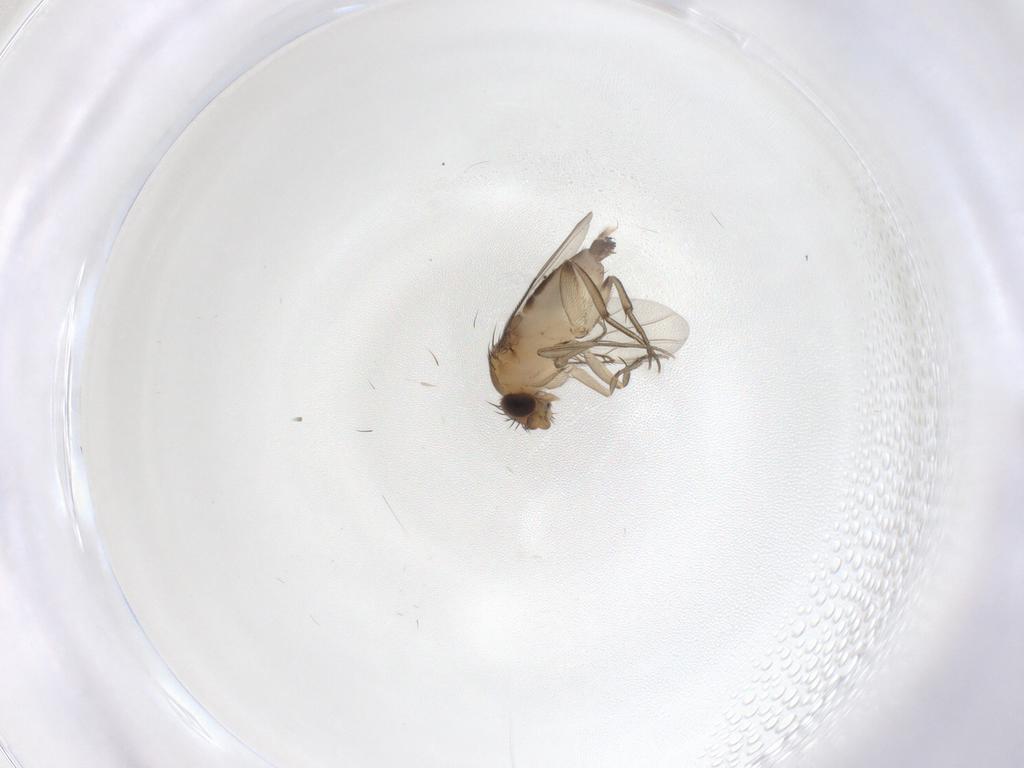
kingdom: Animalia
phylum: Arthropoda
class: Insecta
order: Diptera
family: Phoridae
